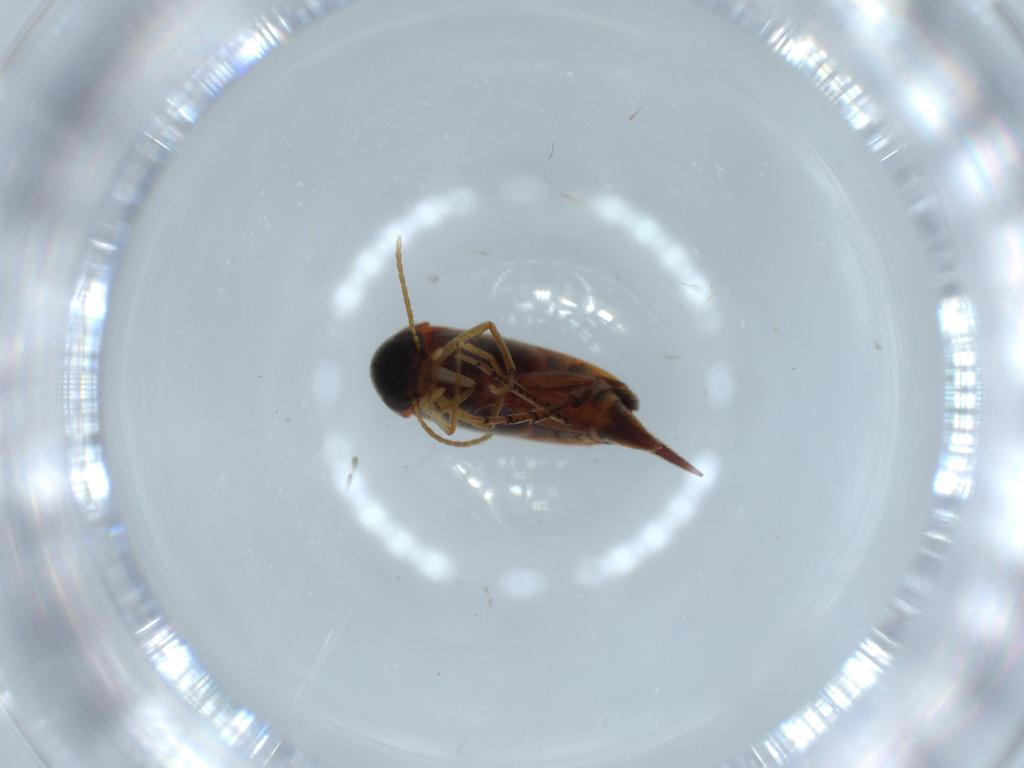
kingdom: Animalia
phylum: Arthropoda
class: Insecta
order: Coleoptera
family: Mordellidae
